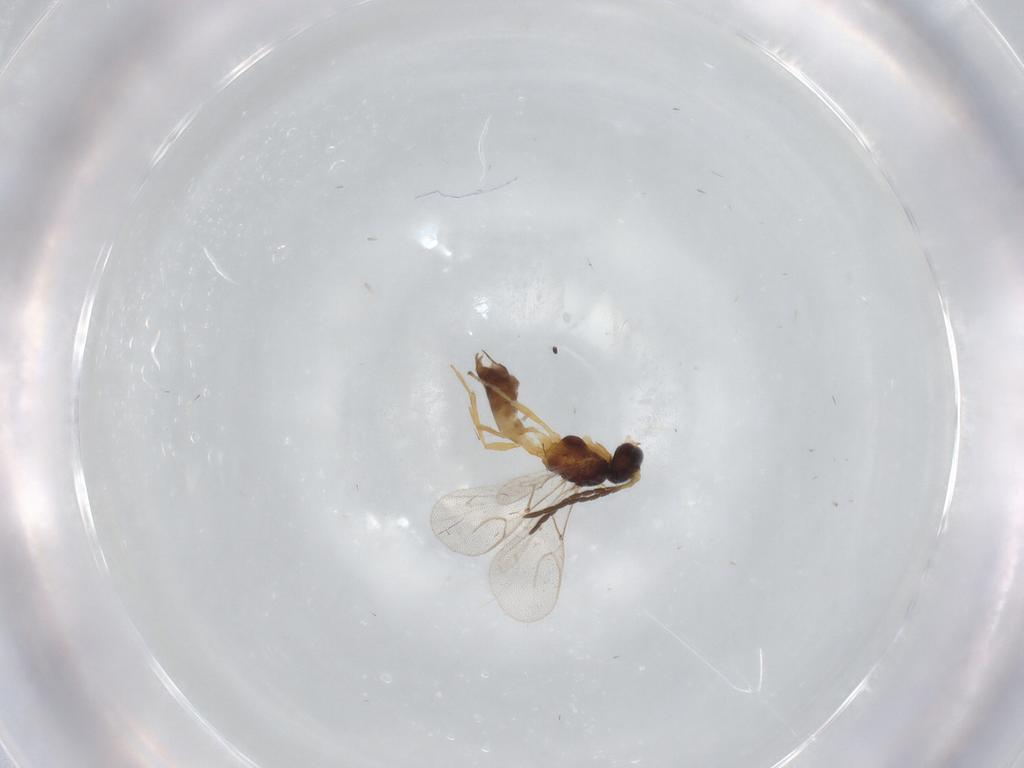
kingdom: Animalia
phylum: Arthropoda
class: Insecta
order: Hymenoptera
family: Braconidae
